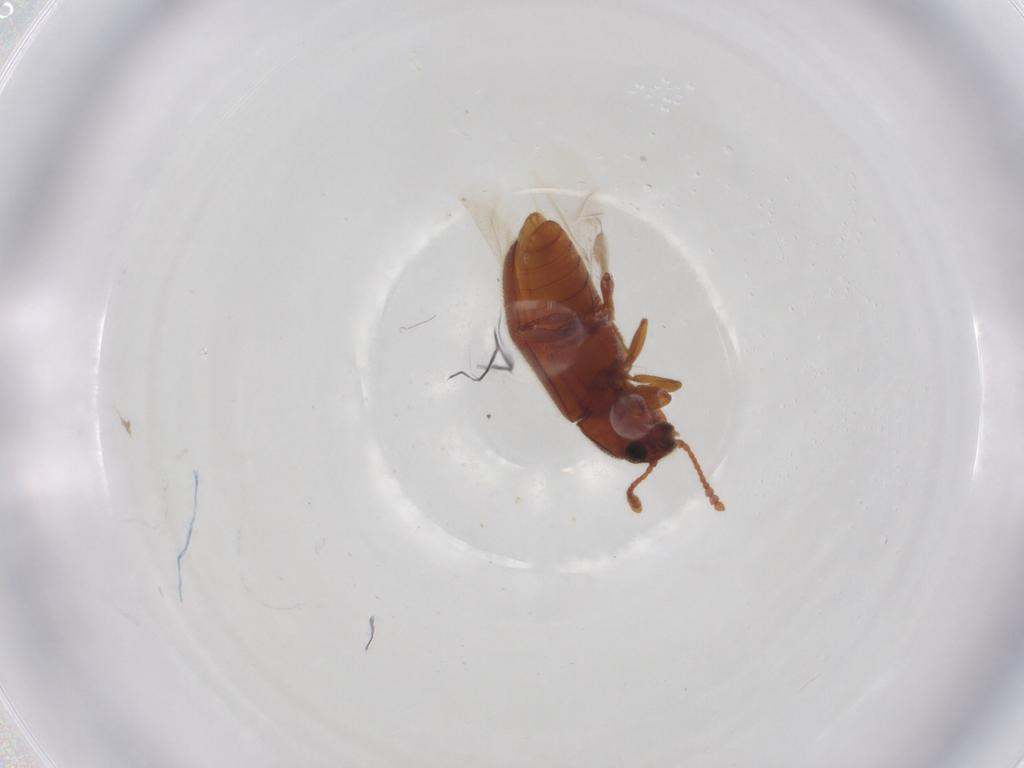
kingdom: Animalia
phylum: Arthropoda
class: Insecta
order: Coleoptera
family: Erotylidae
